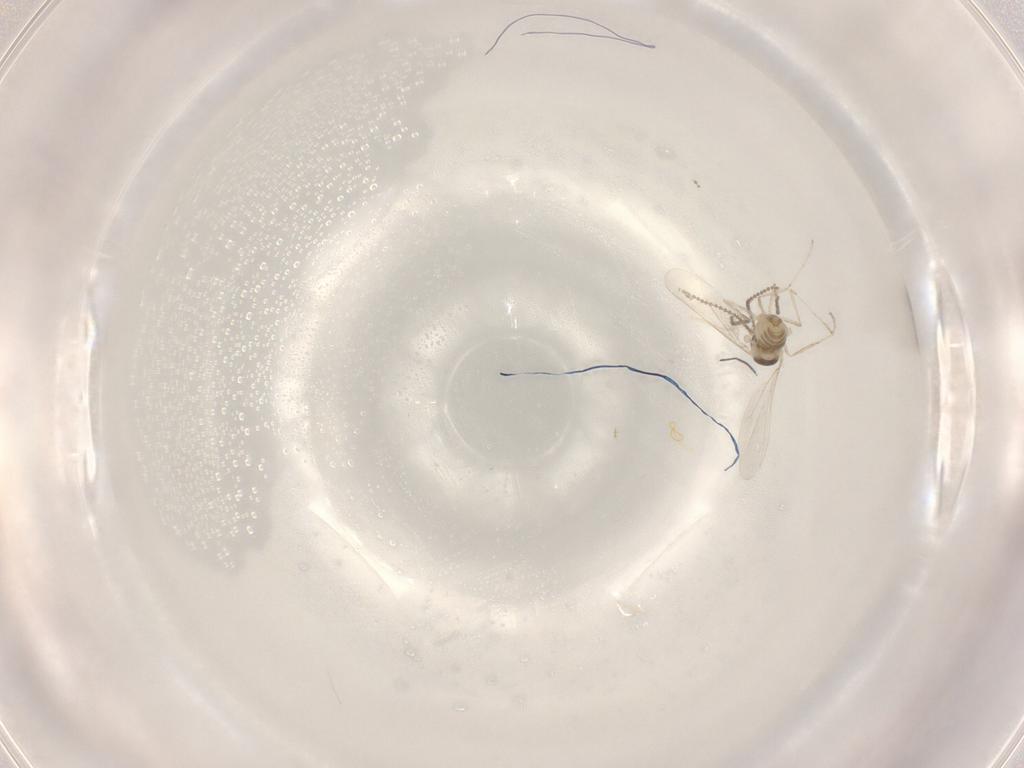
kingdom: Animalia
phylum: Arthropoda
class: Insecta
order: Diptera
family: Cecidomyiidae
